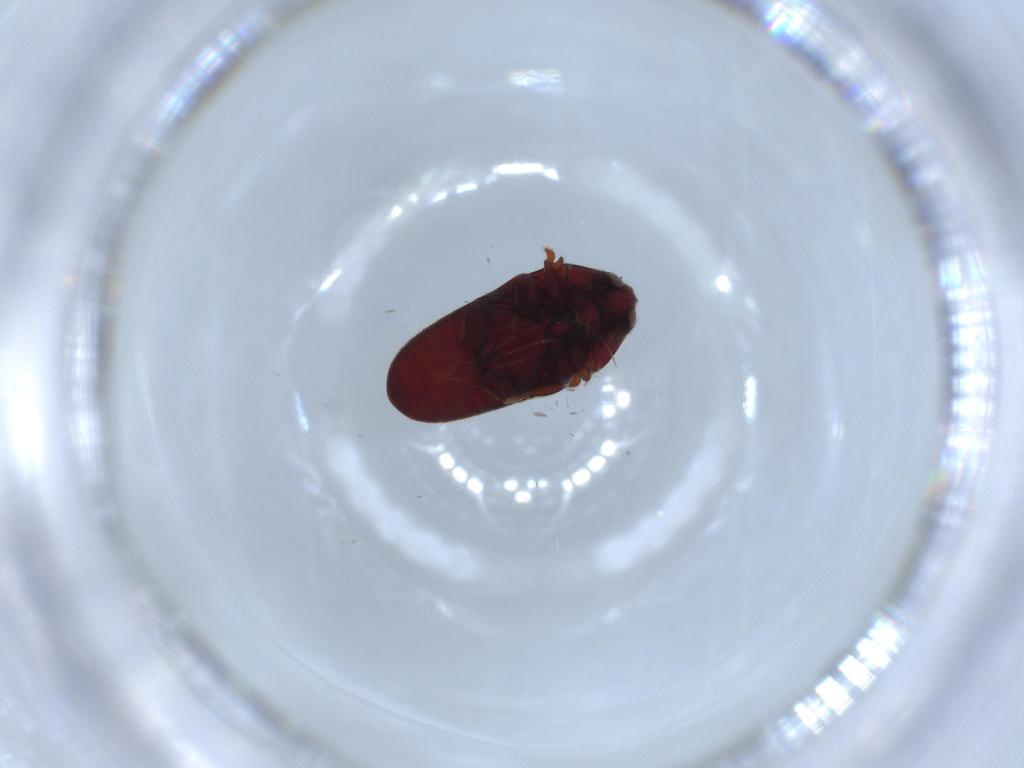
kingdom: Animalia
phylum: Arthropoda
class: Insecta
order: Coleoptera
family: Throscidae
